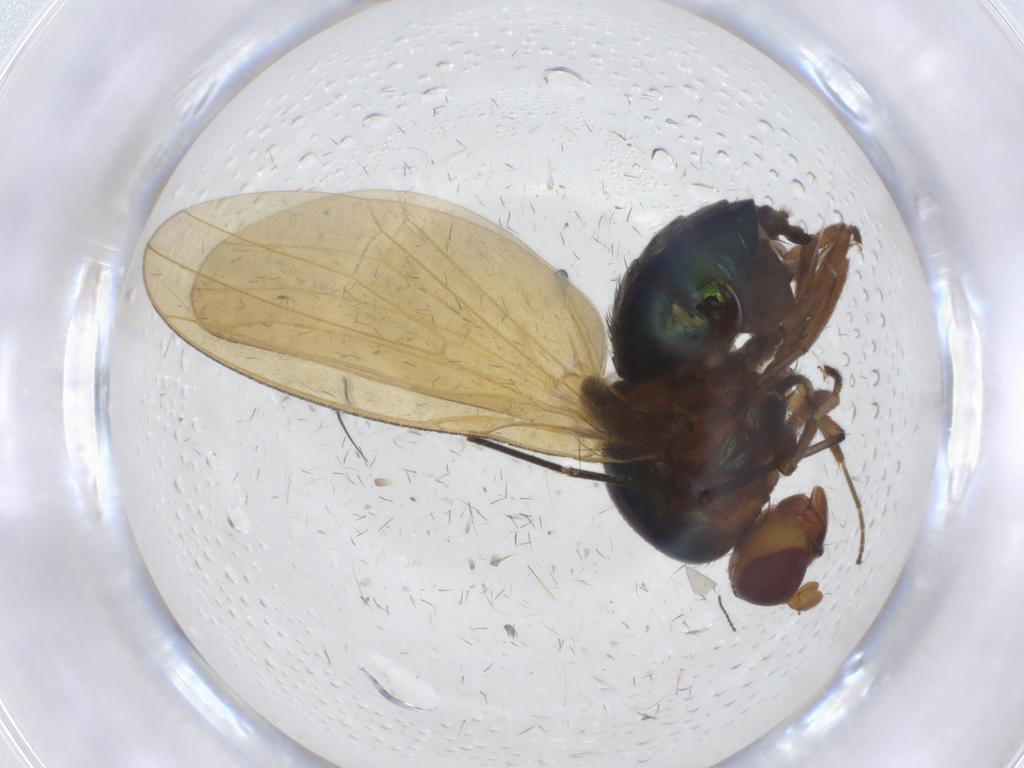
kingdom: Animalia
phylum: Arthropoda
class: Insecta
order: Diptera
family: Lauxaniidae
